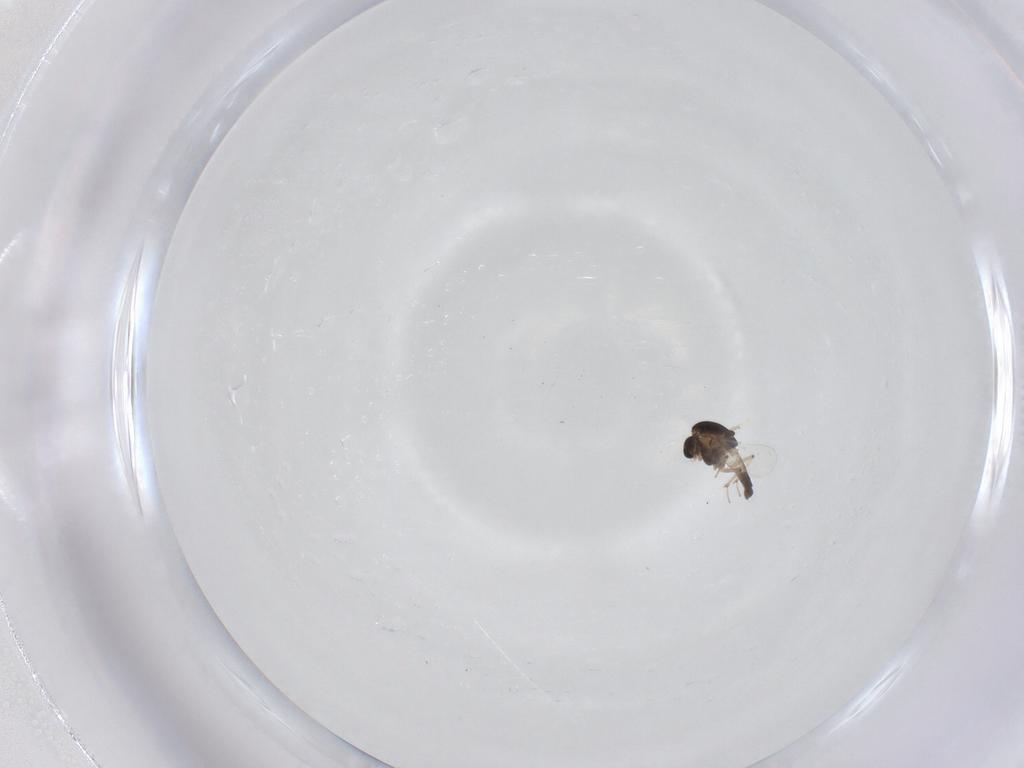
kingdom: Animalia
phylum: Arthropoda
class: Insecta
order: Diptera
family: Chironomidae
